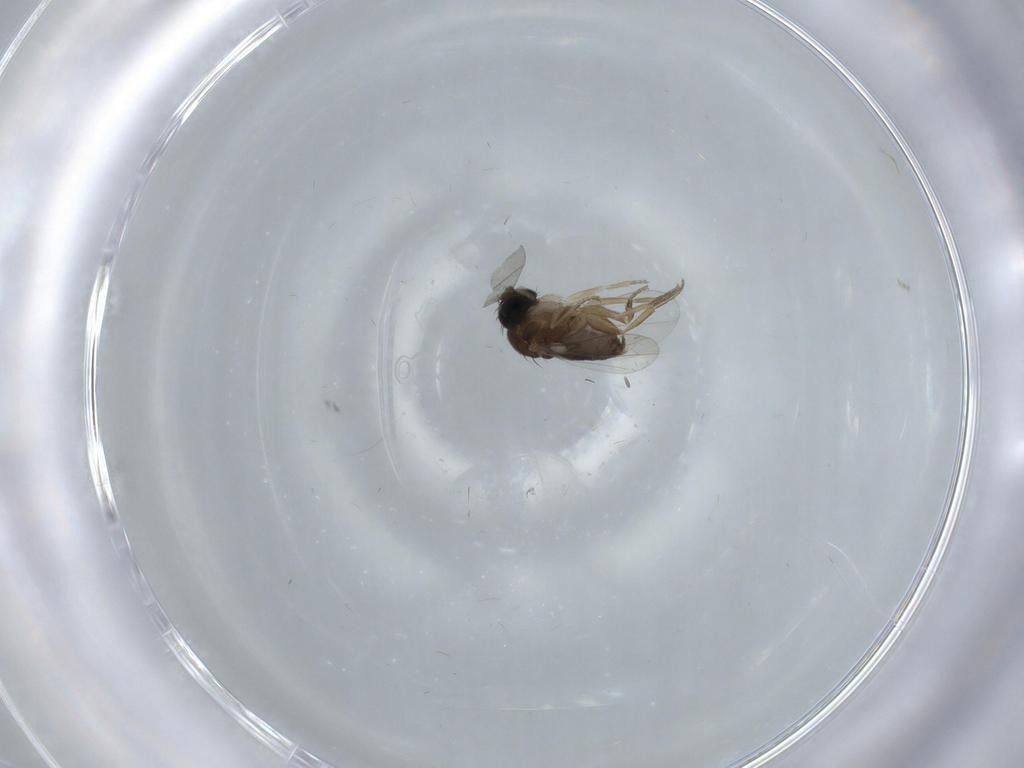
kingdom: Animalia
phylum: Arthropoda
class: Insecta
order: Diptera
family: Phoridae
